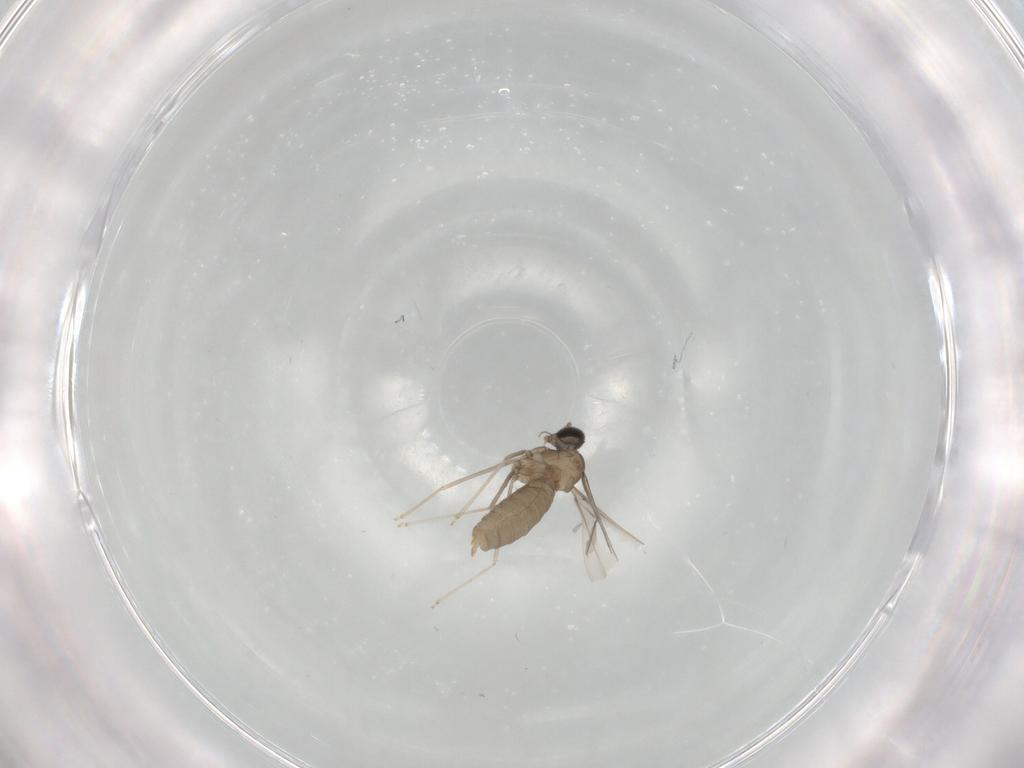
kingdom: Animalia
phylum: Arthropoda
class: Insecta
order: Diptera
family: Cecidomyiidae
